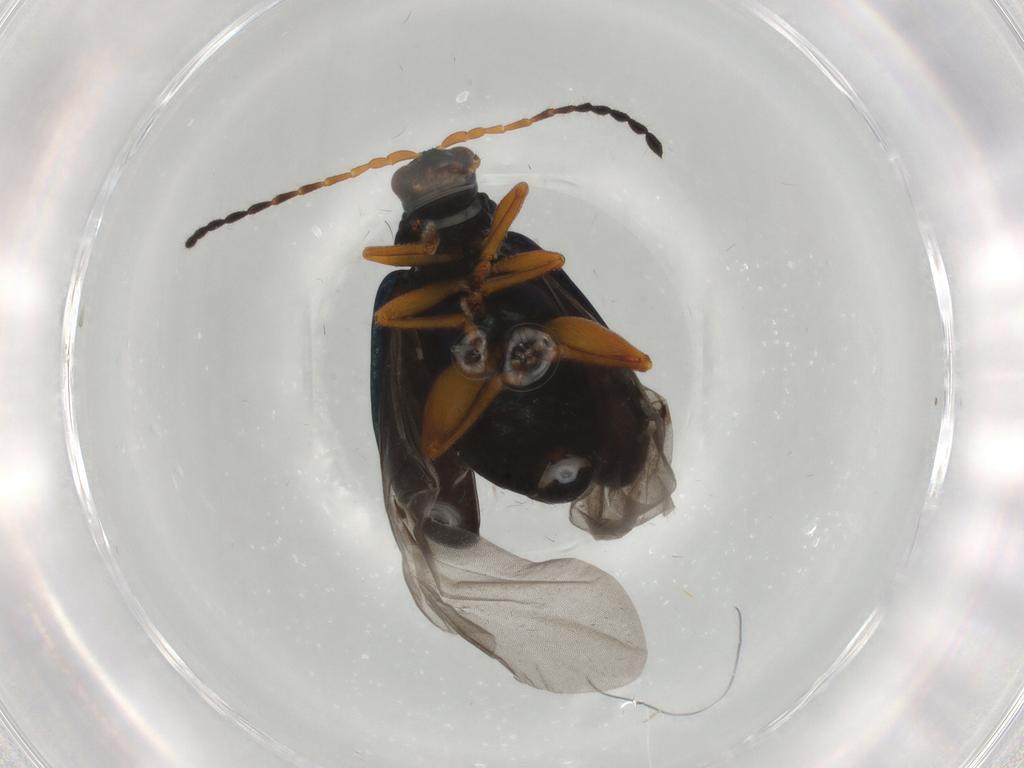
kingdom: Animalia
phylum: Arthropoda
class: Insecta
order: Coleoptera
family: Chrysomelidae
